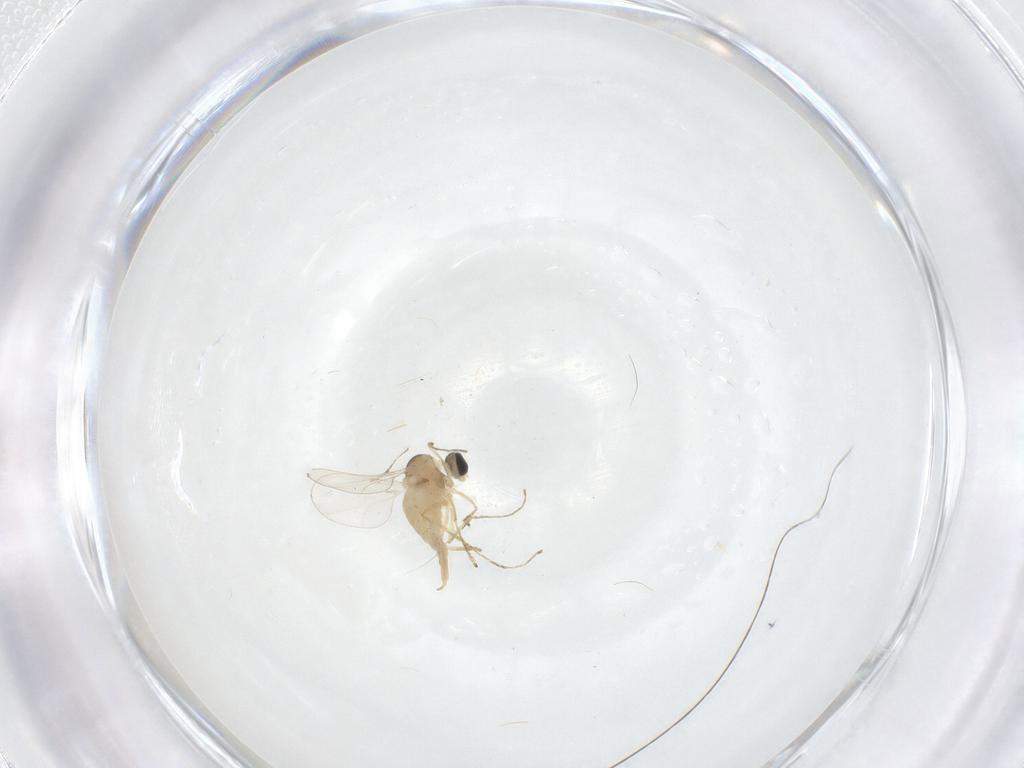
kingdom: Animalia
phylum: Arthropoda
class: Insecta
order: Diptera
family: Cecidomyiidae
